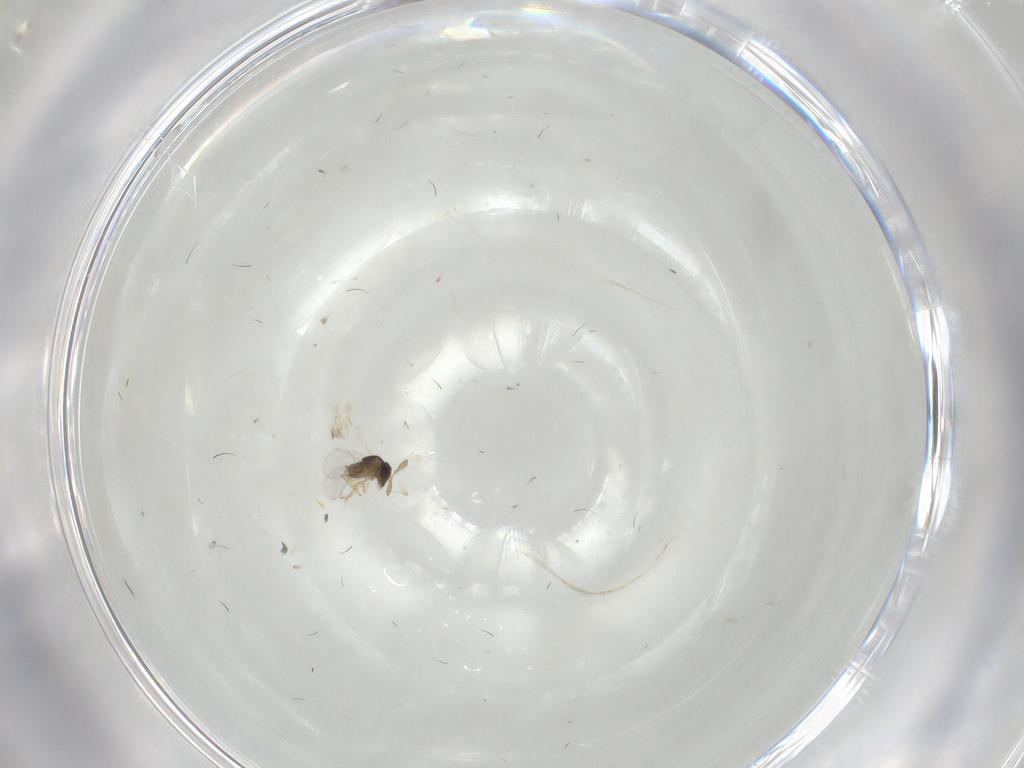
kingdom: Animalia
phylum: Arthropoda
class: Insecta
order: Hymenoptera
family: Encyrtidae
